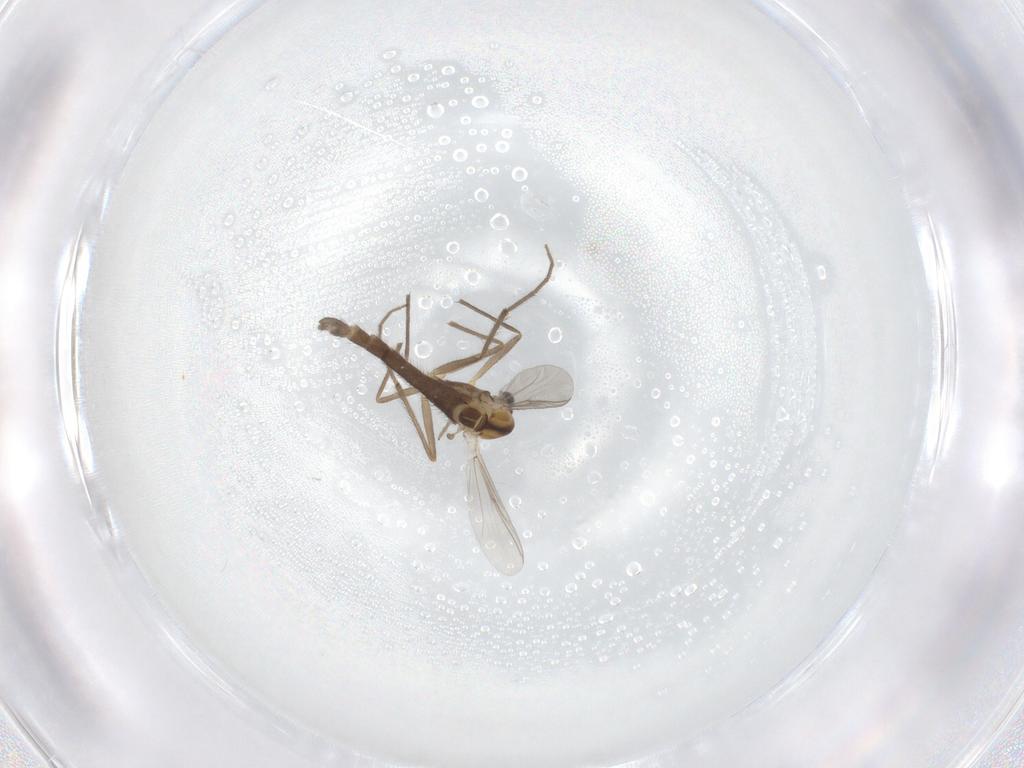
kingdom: Animalia
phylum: Arthropoda
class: Insecta
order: Diptera
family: Chironomidae
